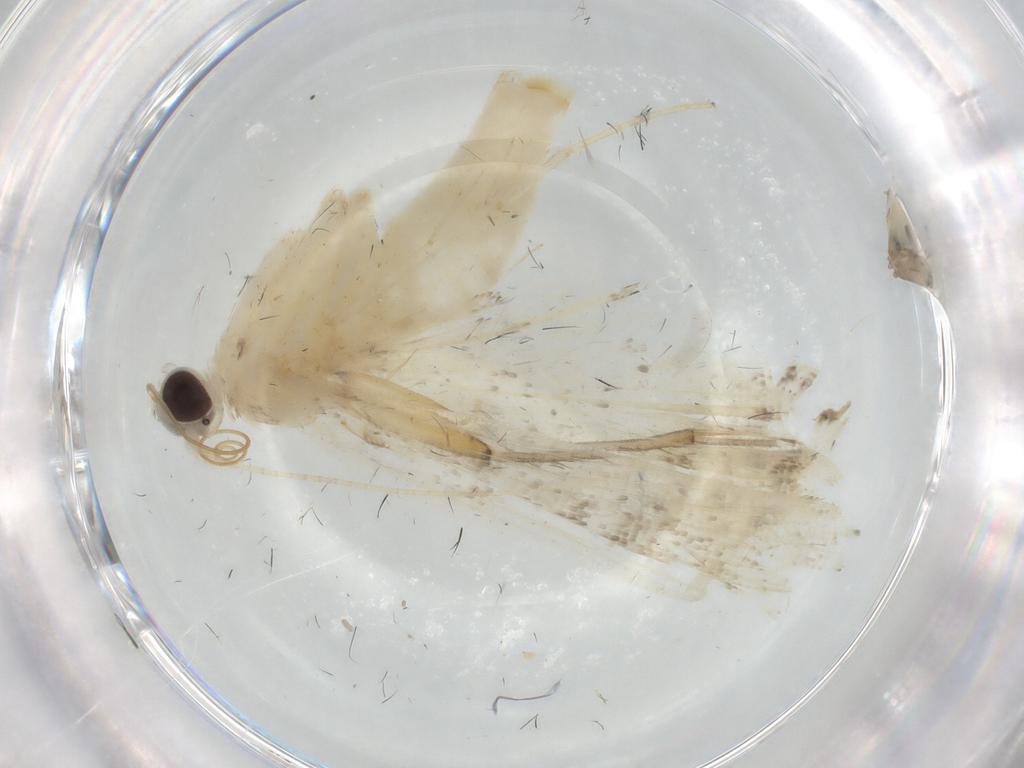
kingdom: Animalia
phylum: Arthropoda
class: Insecta
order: Lepidoptera
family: Crambidae
